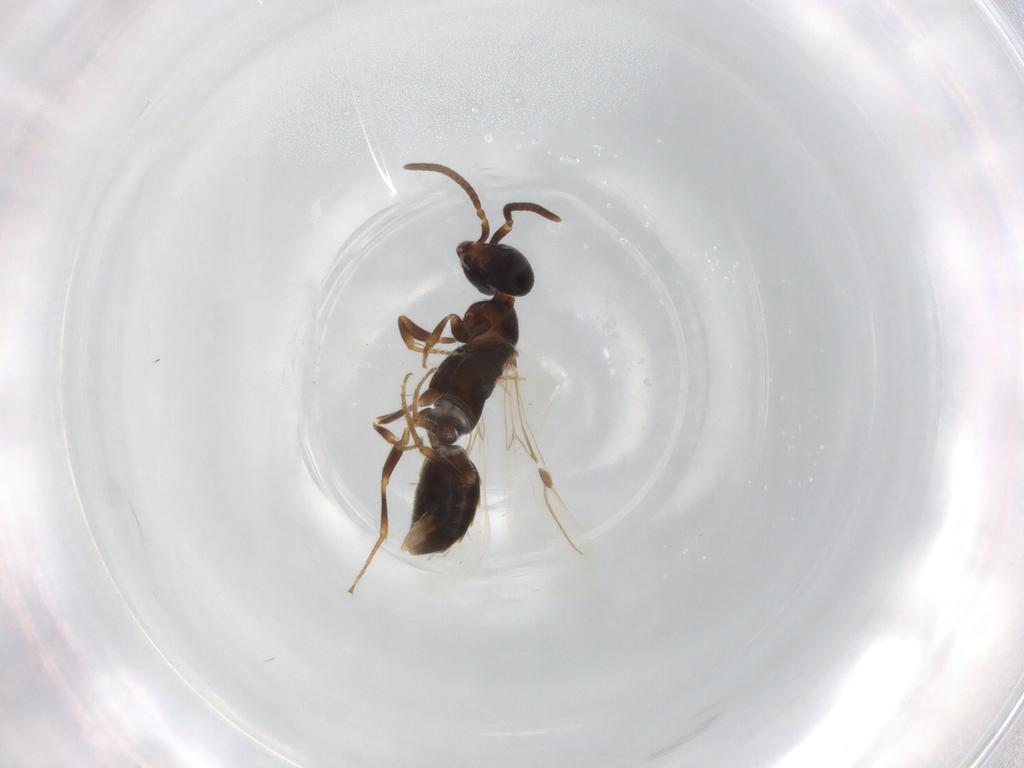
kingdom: Animalia
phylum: Arthropoda
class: Insecta
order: Hymenoptera
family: Bethylidae
